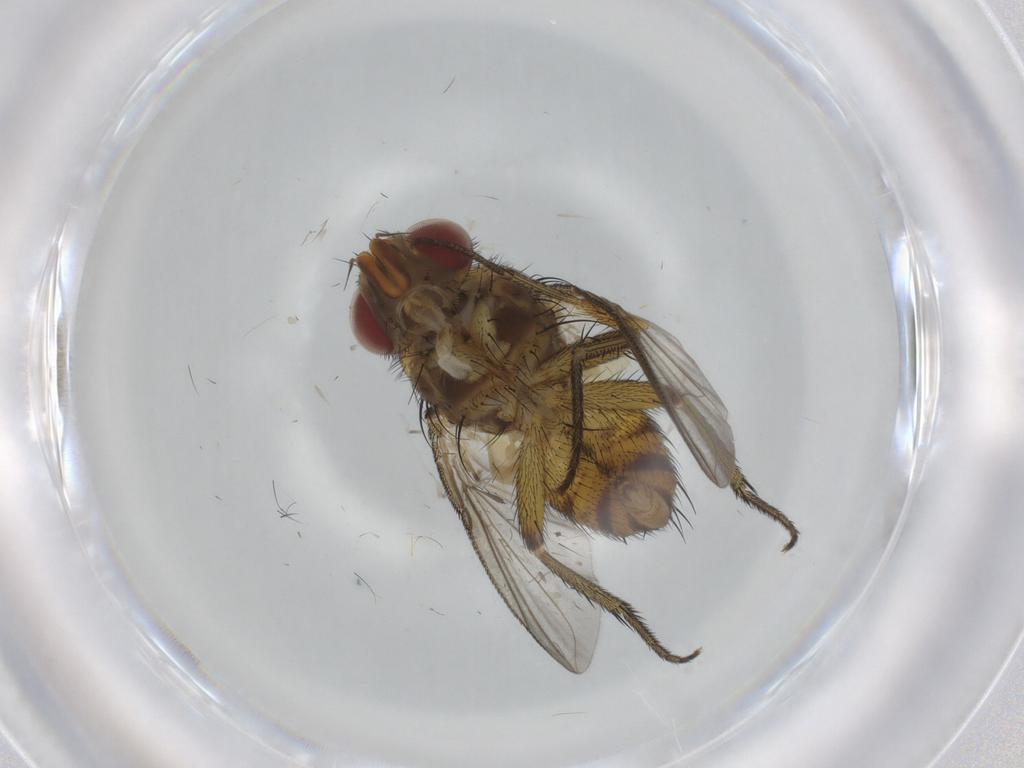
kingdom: Animalia
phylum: Arthropoda
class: Insecta
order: Diptera
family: Tachinidae
